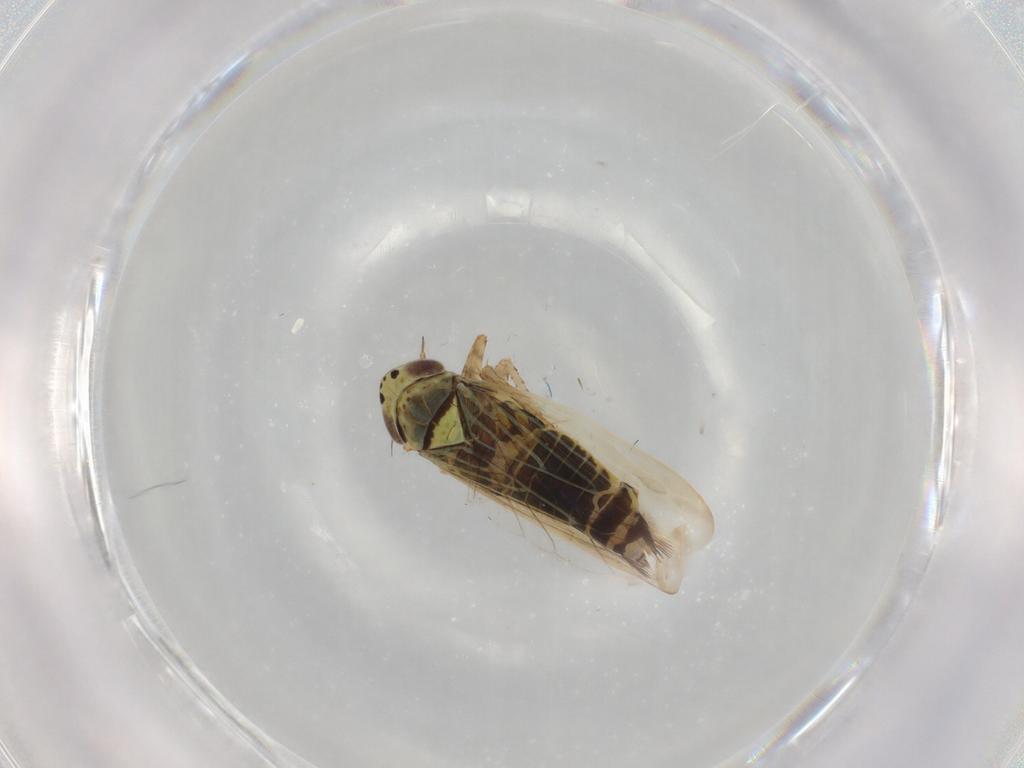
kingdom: Animalia
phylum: Arthropoda
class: Insecta
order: Hemiptera
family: Cicadellidae
